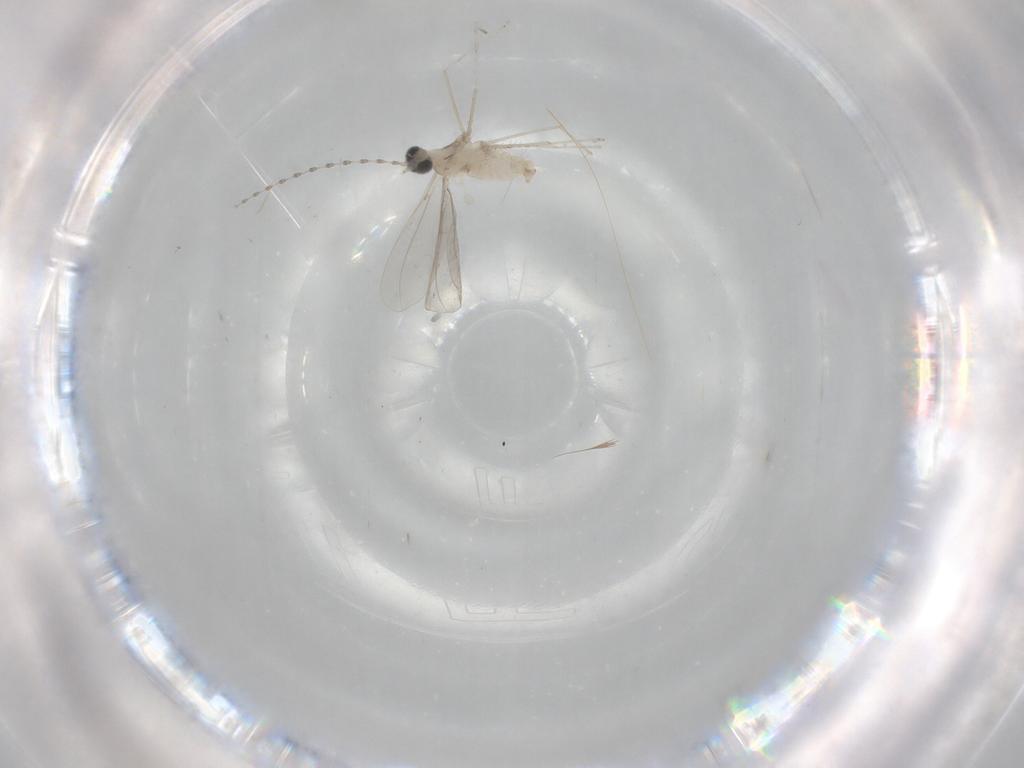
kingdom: Animalia
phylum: Arthropoda
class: Insecta
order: Diptera
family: Cecidomyiidae
